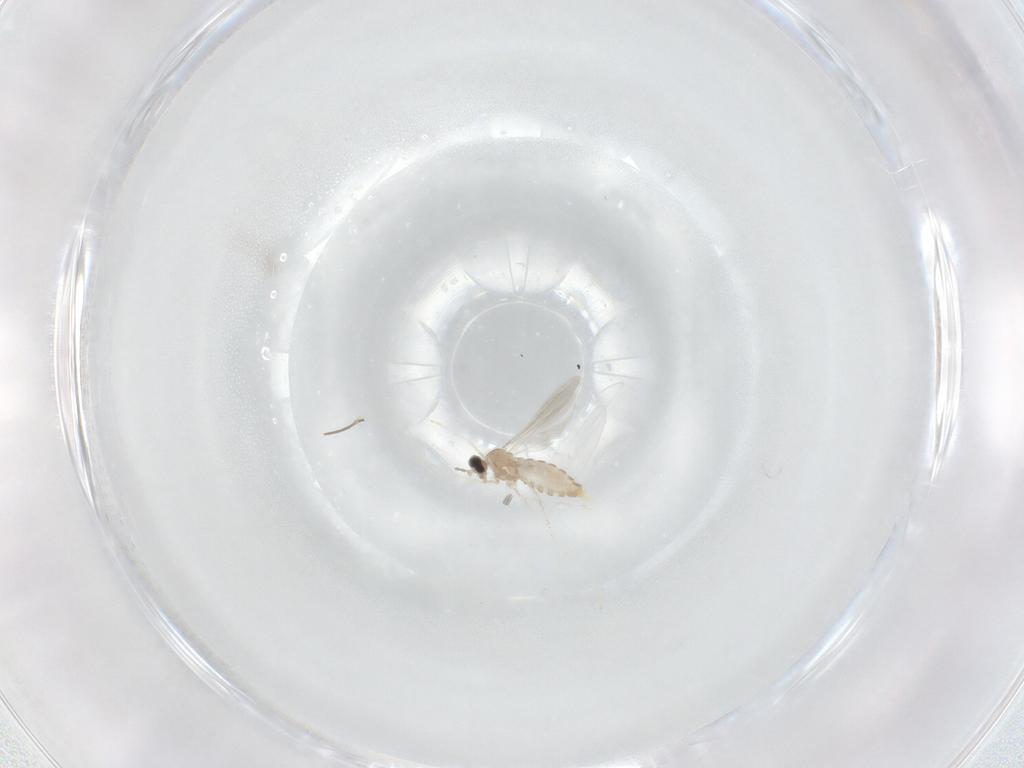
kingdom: Animalia
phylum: Arthropoda
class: Insecta
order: Diptera
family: Cecidomyiidae
